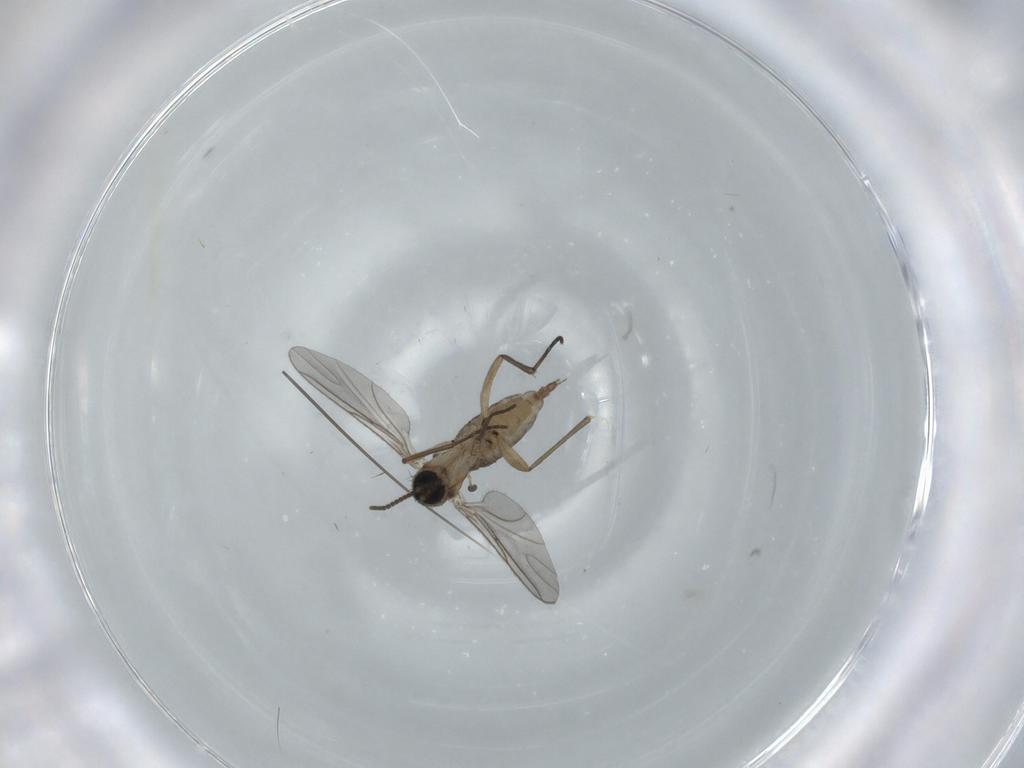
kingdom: Animalia
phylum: Arthropoda
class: Insecta
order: Diptera
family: Sciaridae
